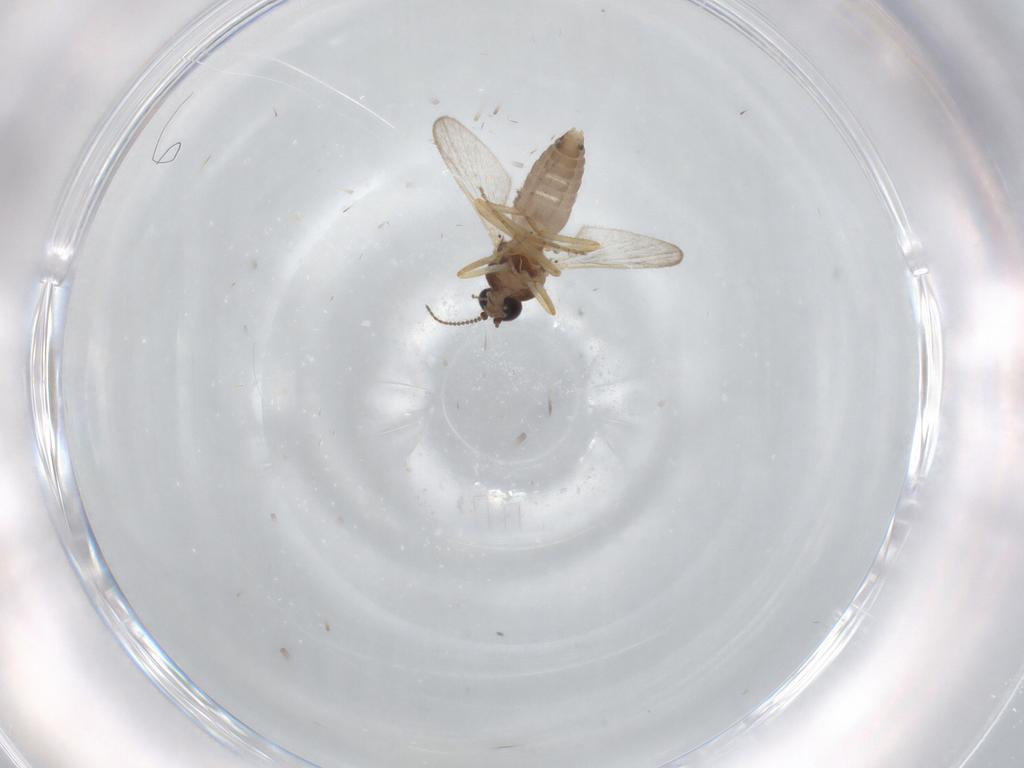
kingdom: Animalia
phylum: Arthropoda
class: Insecta
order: Diptera
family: Ceratopogonidae
